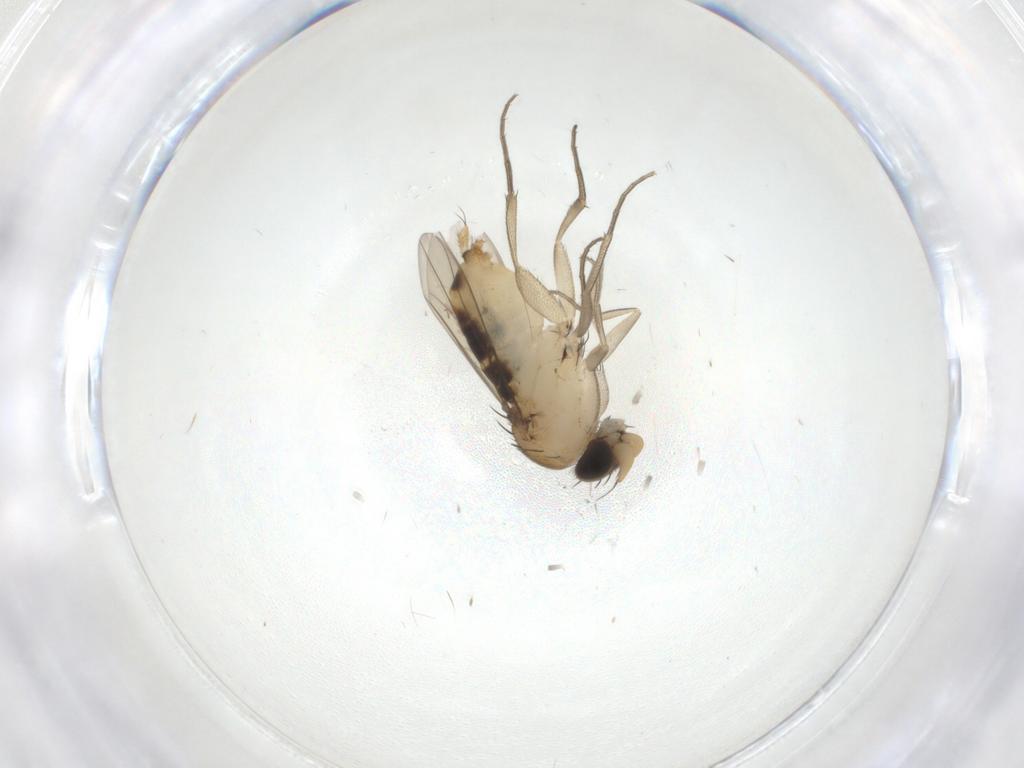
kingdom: Animalia
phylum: Arthropoda
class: Insecta
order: Diptera
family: Phoridae
